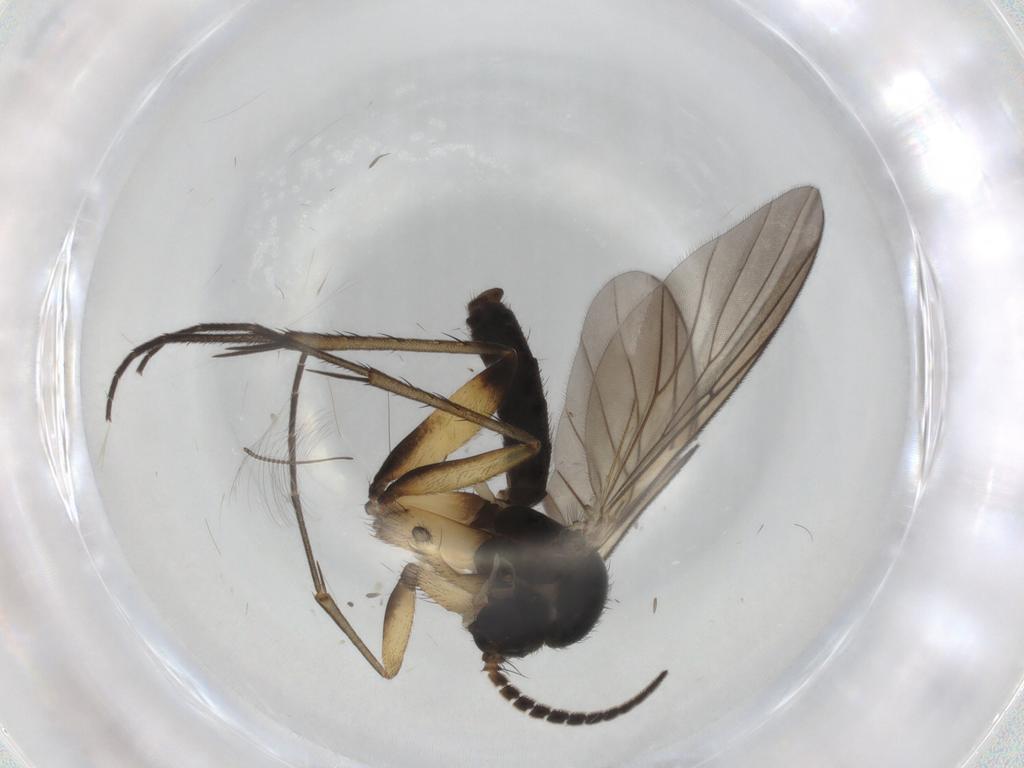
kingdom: Animalia
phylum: Arthropoda
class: Insecta
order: Diptera
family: Mycetophilidae
